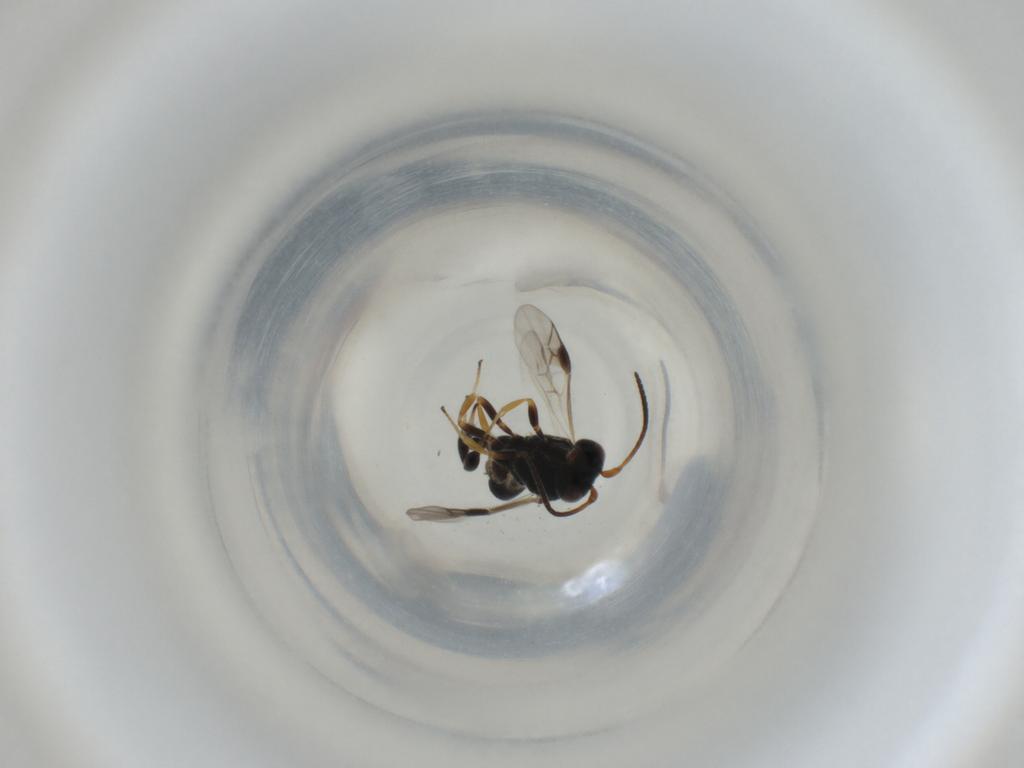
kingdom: Animalia
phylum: Arthropoda
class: Insecta
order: Hymenoptera
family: Braconidae
